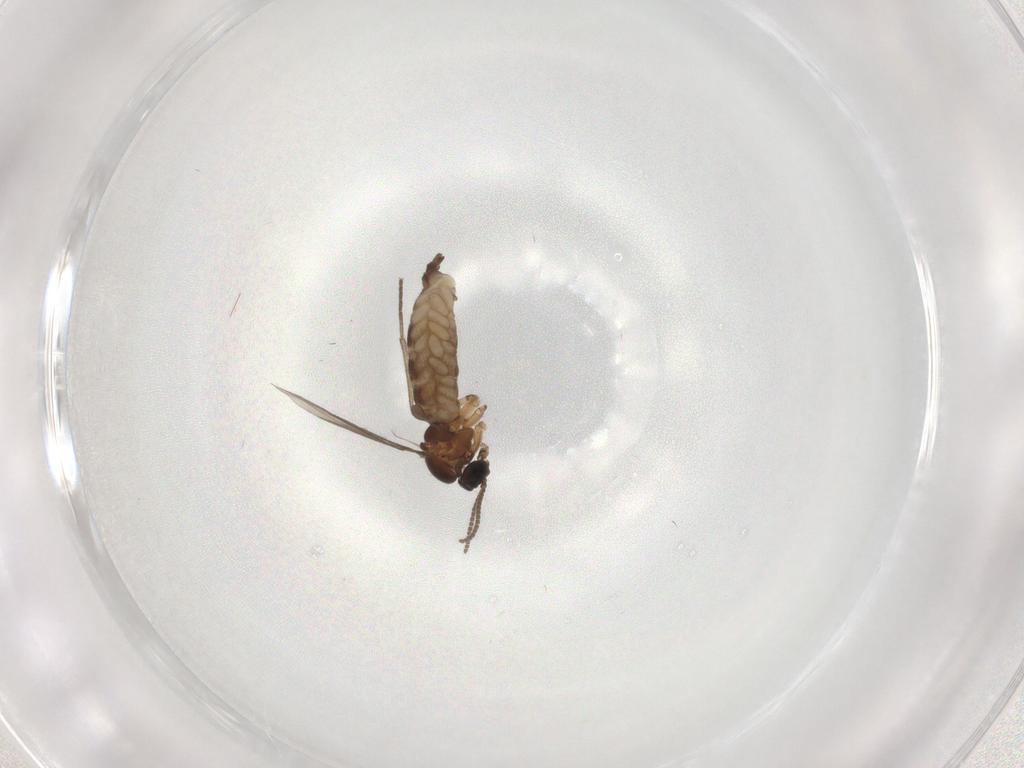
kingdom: Animalia
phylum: Arthropoda
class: Insecta
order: Diptera
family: Sciaridae
